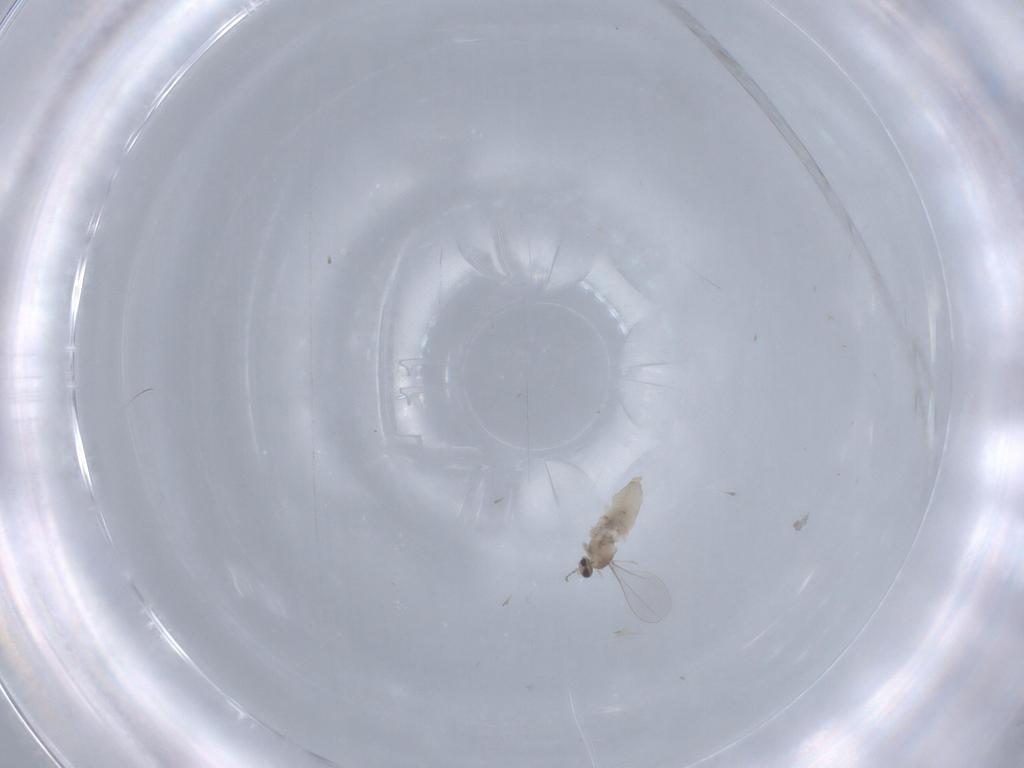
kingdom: Animalia
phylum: Arthropoda
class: Insecta
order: Diptera
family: Cecidomyiidae
